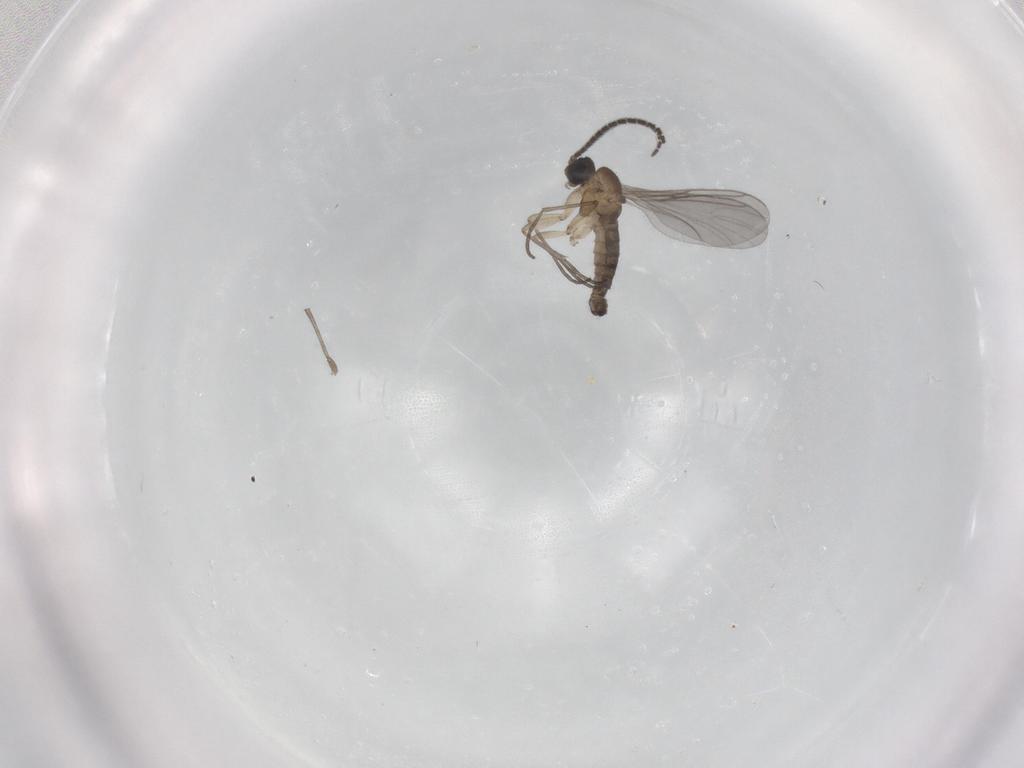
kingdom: Animalia
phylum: Arthropoda
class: Insecta
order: Diptera
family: Sciaridae
